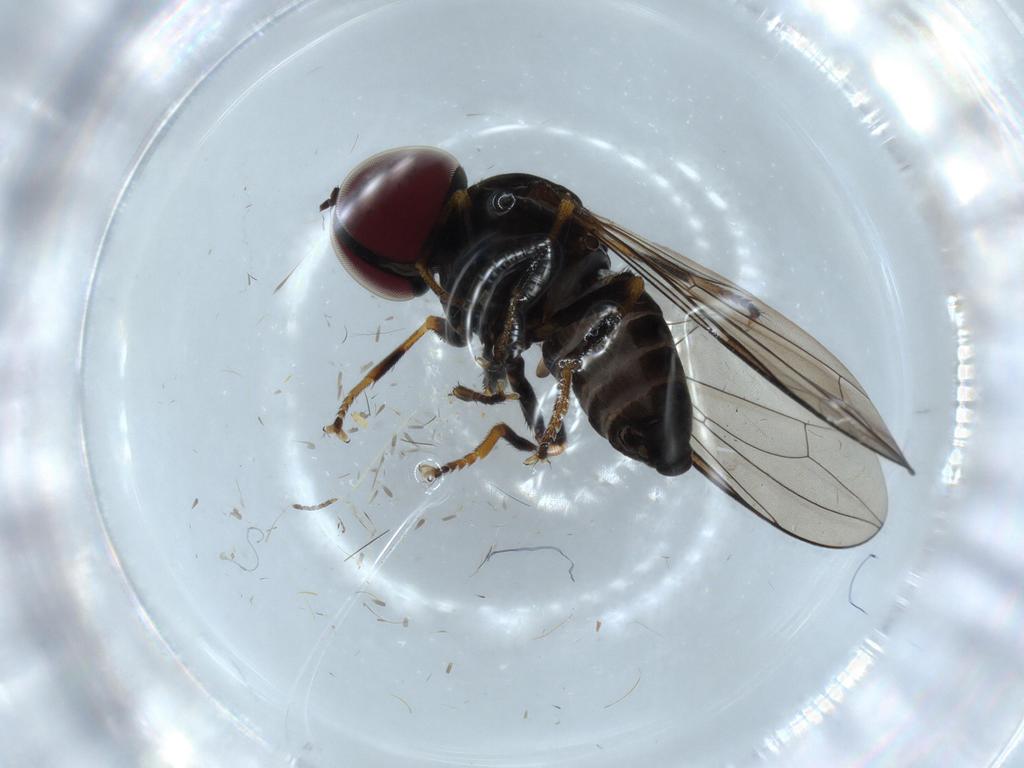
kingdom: Animalia
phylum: Arthropoda
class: Insecta
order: Diptera
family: Pipunculidae
